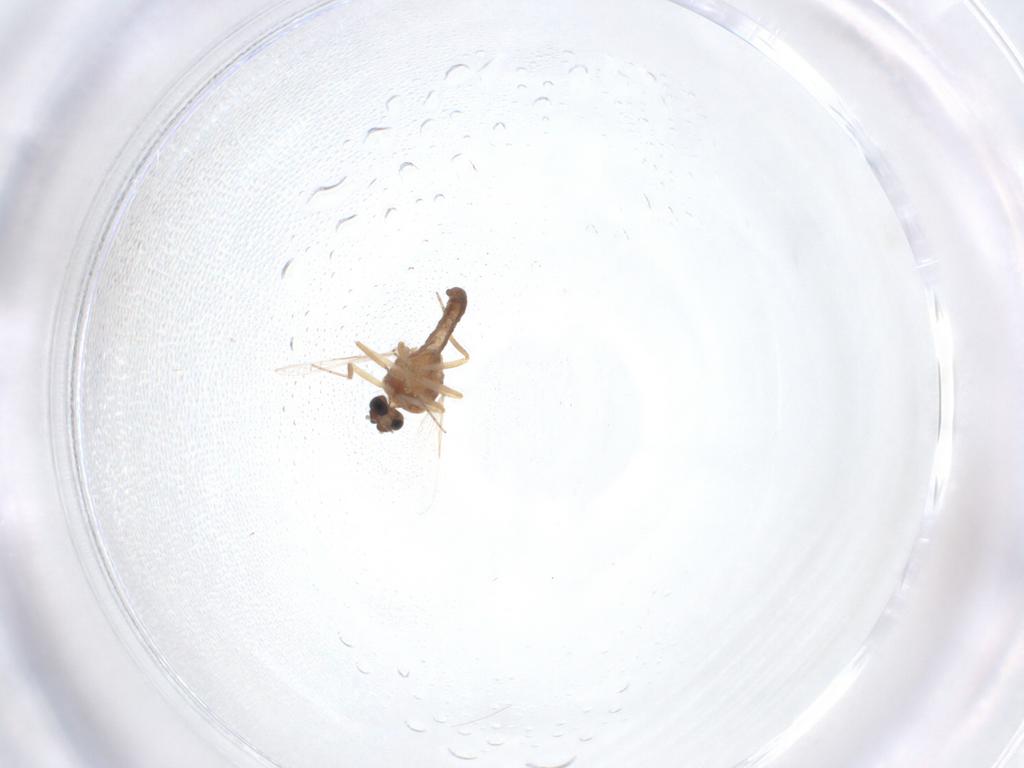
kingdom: Animalia
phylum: Arthropoda
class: Insecta
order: Diptera
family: Ceratopogonidae
